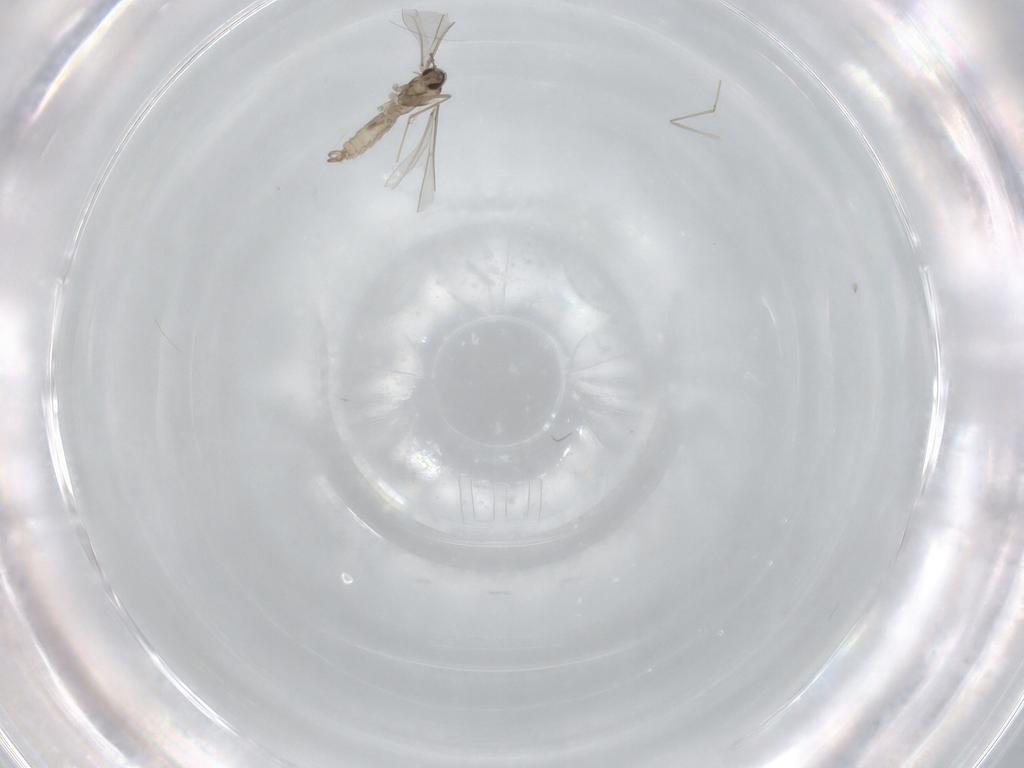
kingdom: Animalia
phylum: Arthropoda
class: Insecta
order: Diptera
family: Cecidomyiidae
